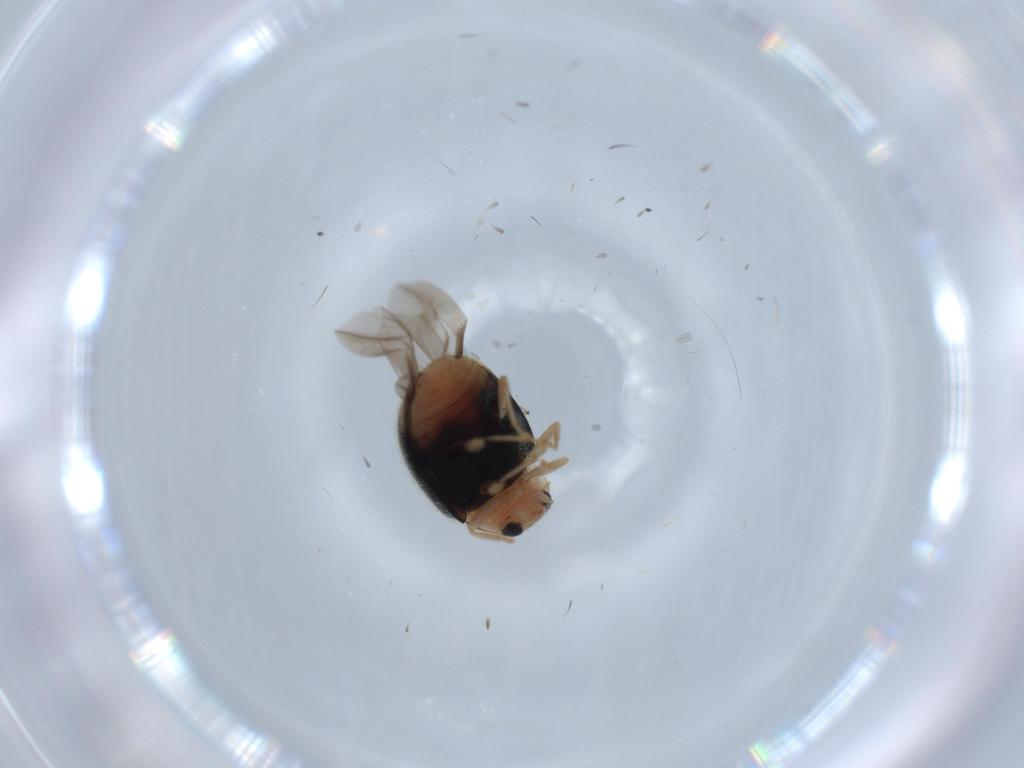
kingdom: Animalia
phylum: Arthropoda
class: Insecta
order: Coleoptera
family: Coccinellidae
